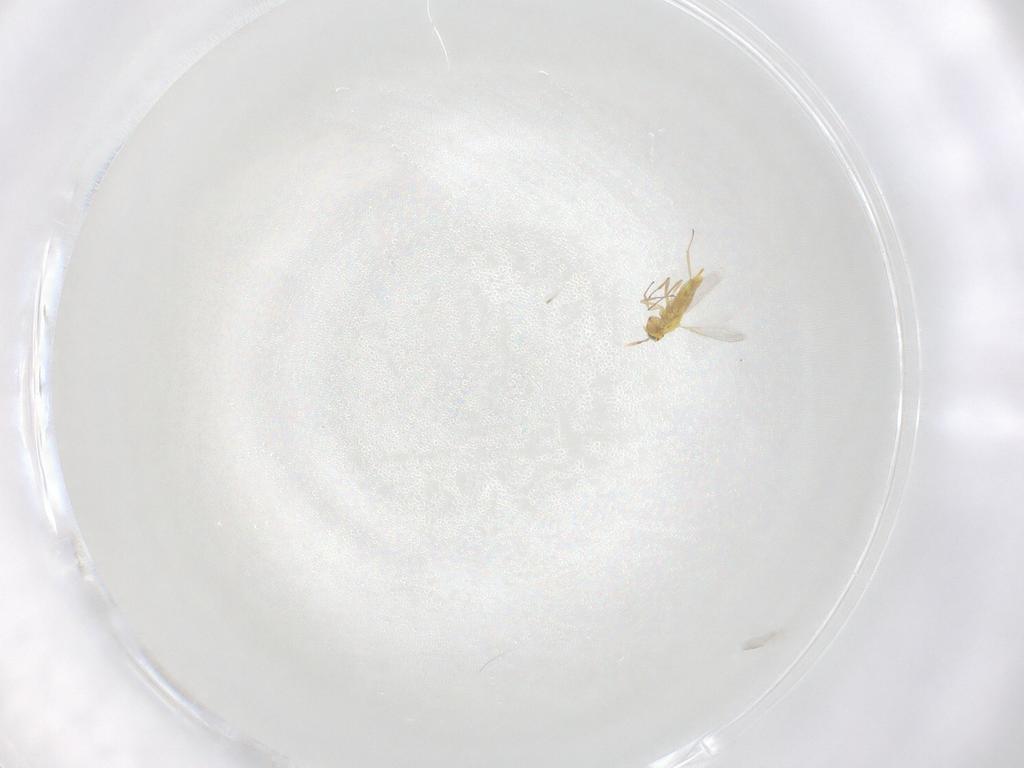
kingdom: Animalia
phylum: Arthropoda
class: Insecta
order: Hymenoptera
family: Aphelinidae
